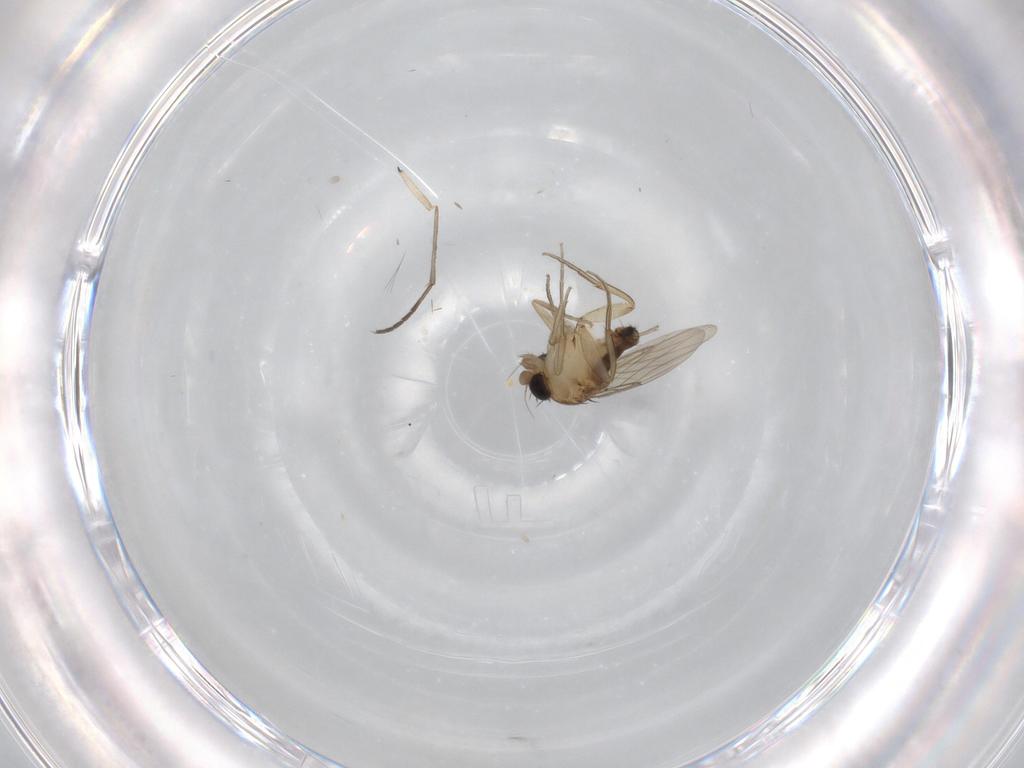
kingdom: Animalia
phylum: Arthropoda
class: Insecta
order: Diptera
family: Sciaridae
